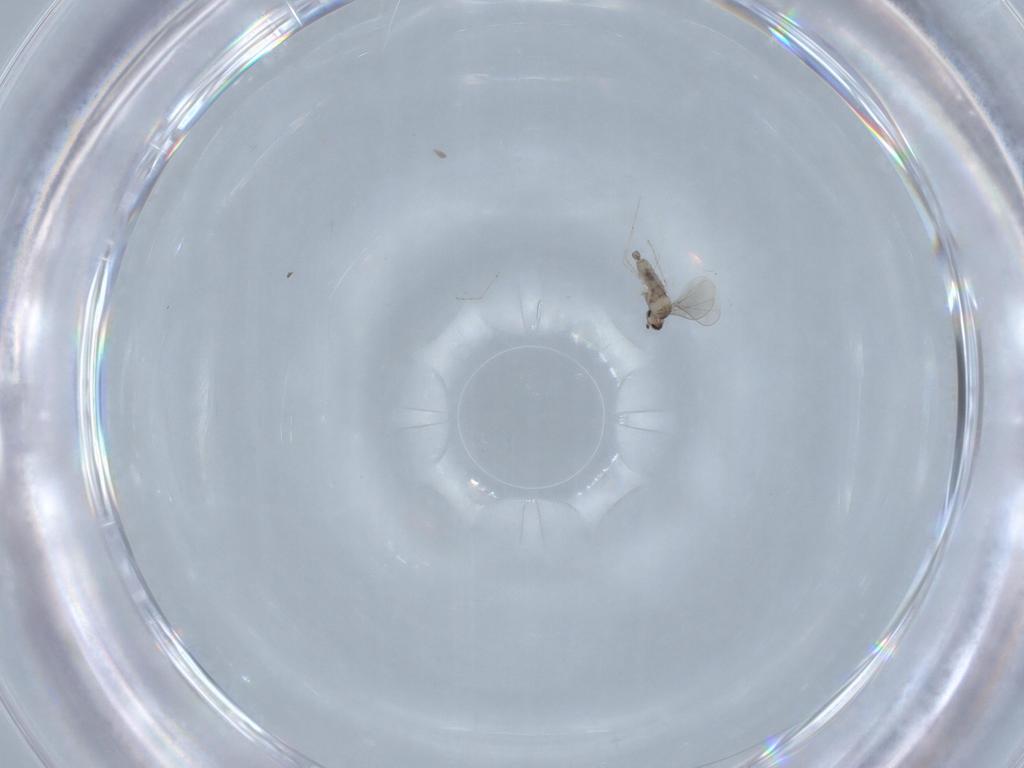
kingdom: Animalia
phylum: Arthropoda
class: Insecta
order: Diptera
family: Cecidomyiidae
